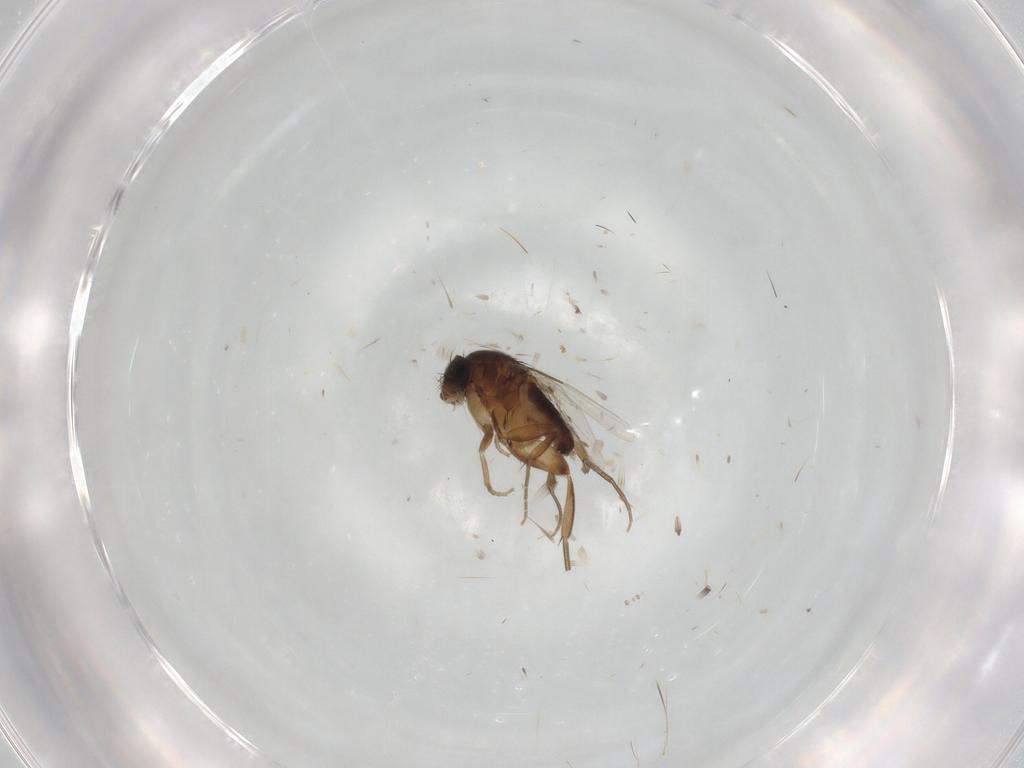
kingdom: Animalia
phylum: Arthropoda
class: Insecta
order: Diptera
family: Phoridae
